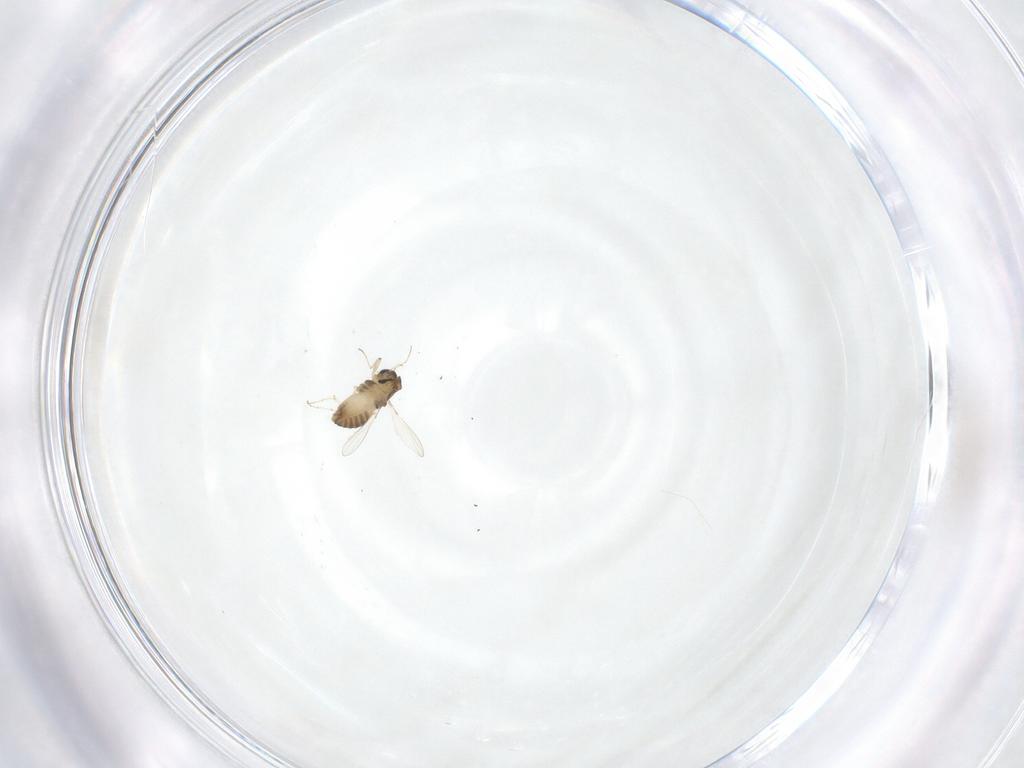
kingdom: Animalia
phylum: Arthropoda
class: Insecta
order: Diptera
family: Chironomidae
